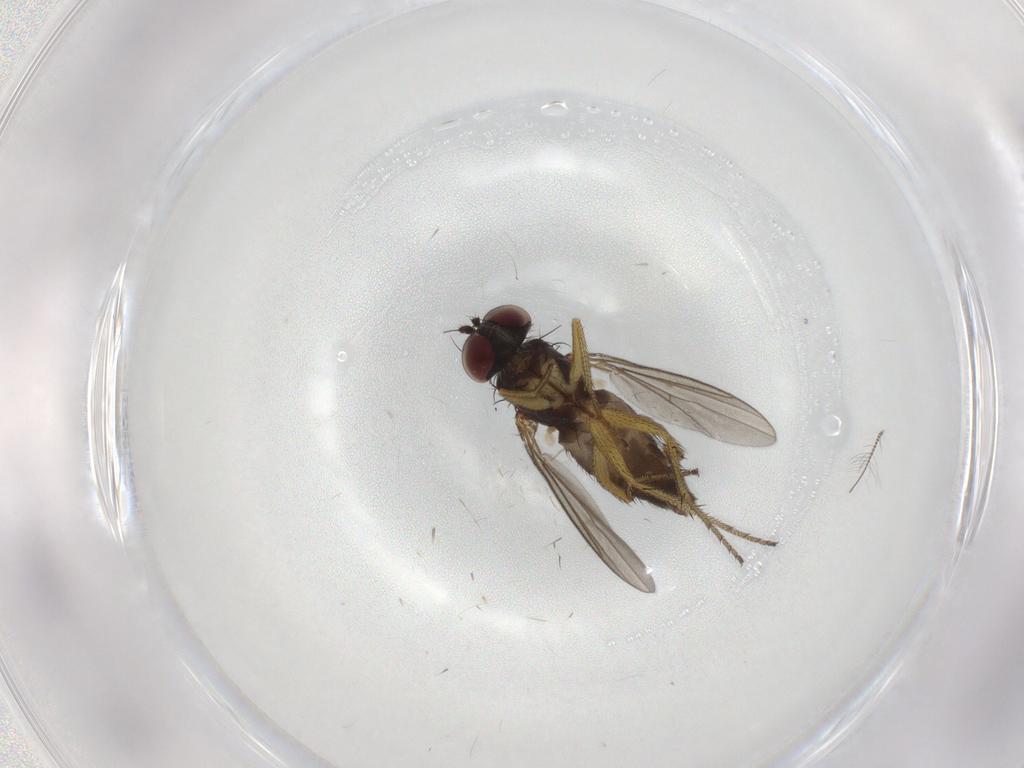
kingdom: Animalia
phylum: Arthropoda
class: Insecta
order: Diptera
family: Dolichopodidae
